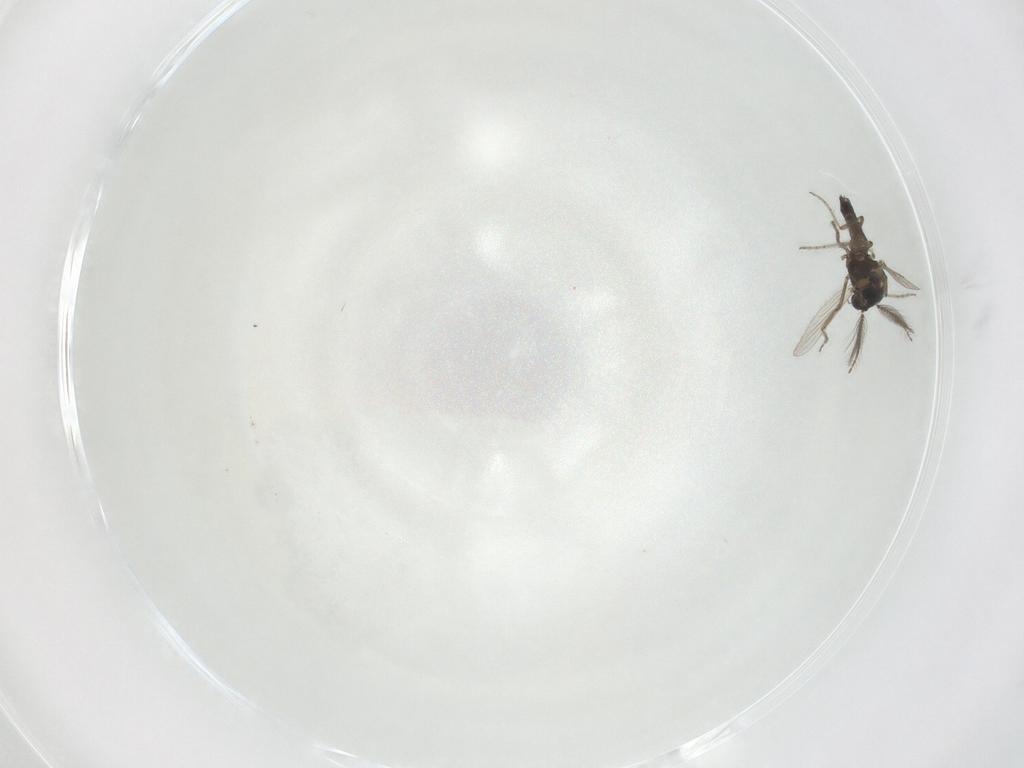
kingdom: Animalia
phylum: Arthropoda
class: Insecta
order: Diptera
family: Ceratopogonidae
